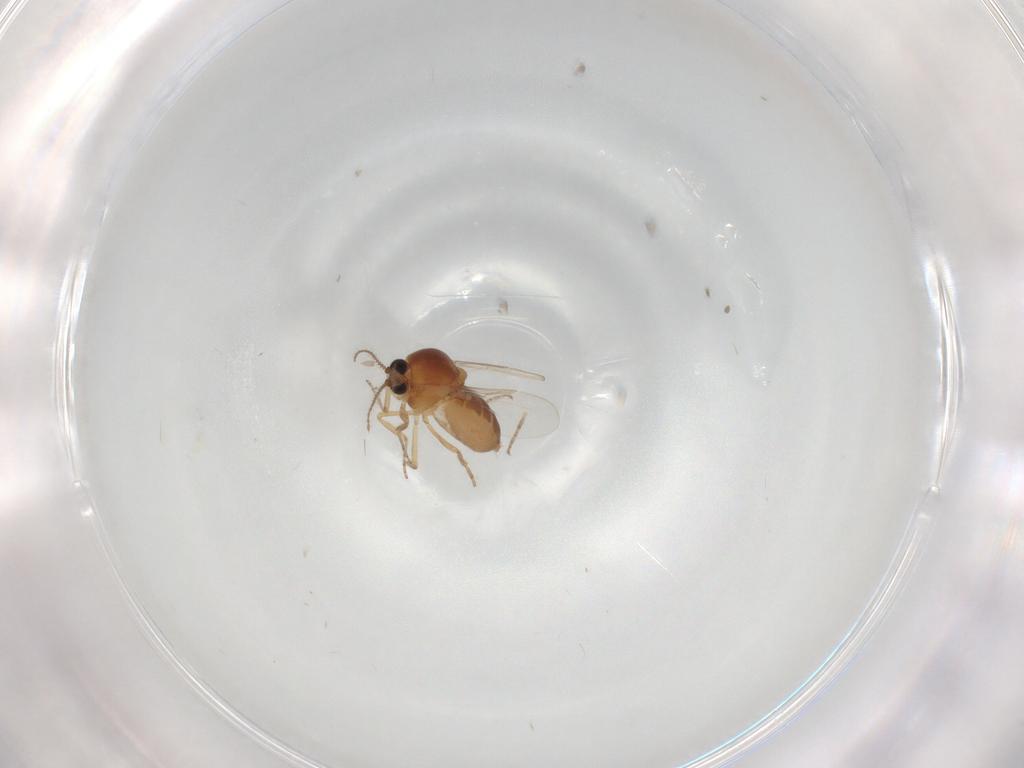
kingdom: Animalia
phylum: Arthropoda
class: Insecta
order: Diptera
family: Ceratopogonidae
